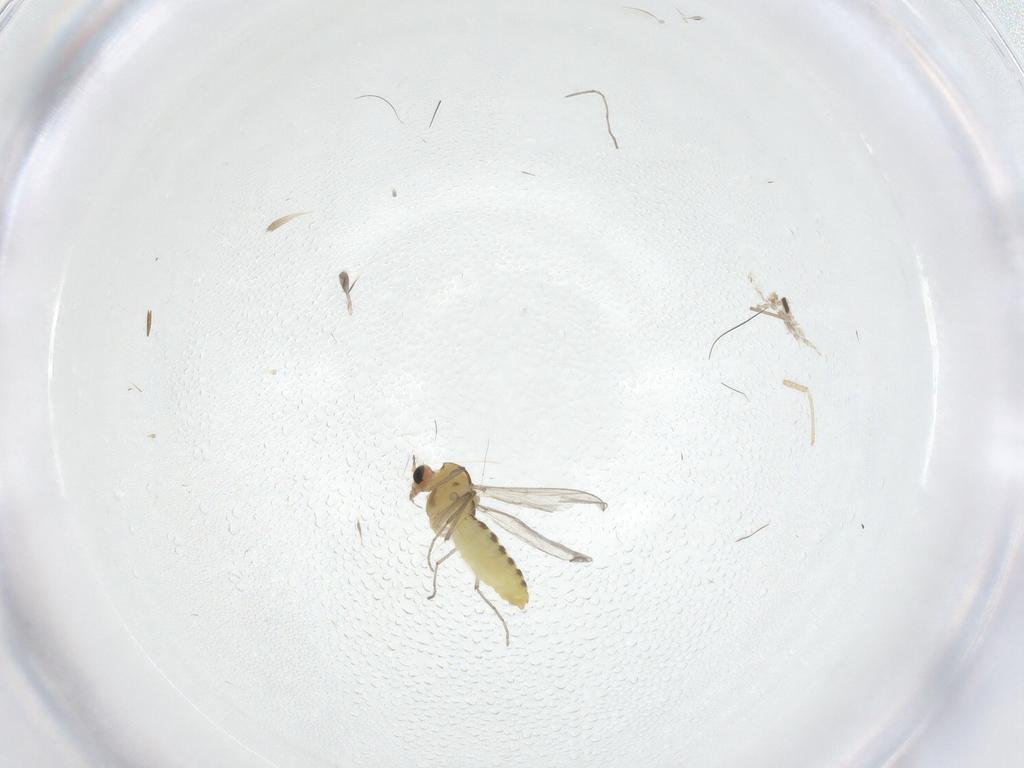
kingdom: Animalia
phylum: Arthropoda
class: Insecta
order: Diptera
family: Chironomidae
